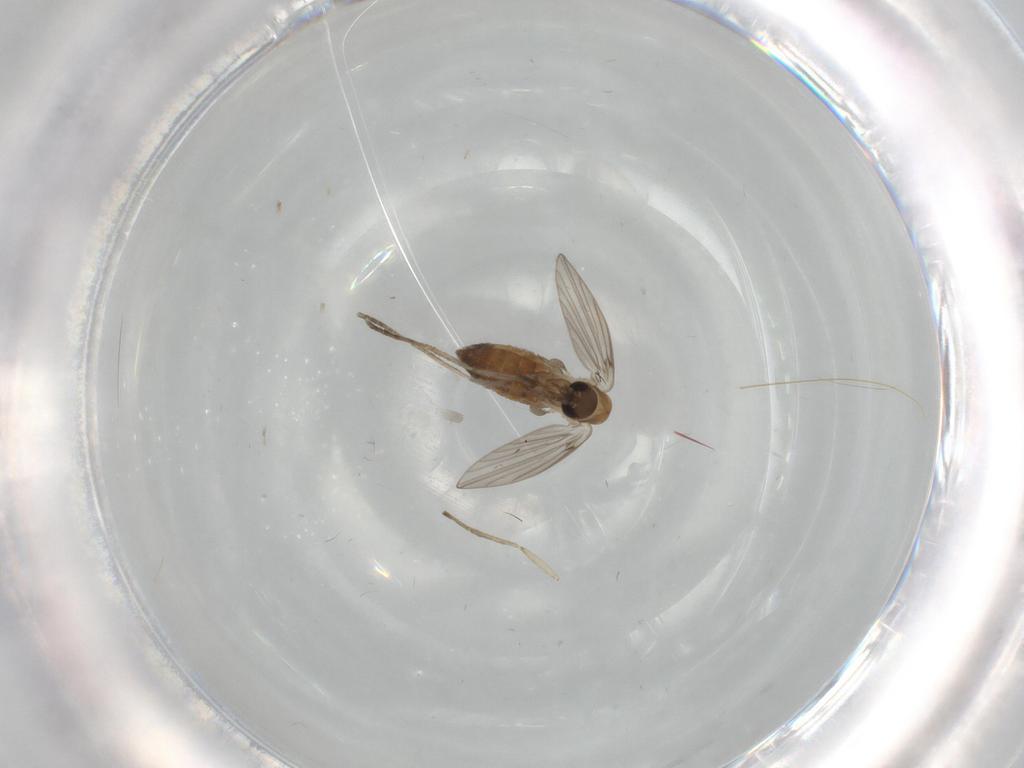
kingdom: Animalia
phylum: Arthropoda
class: Insecta
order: Diptera
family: Psychodidae
